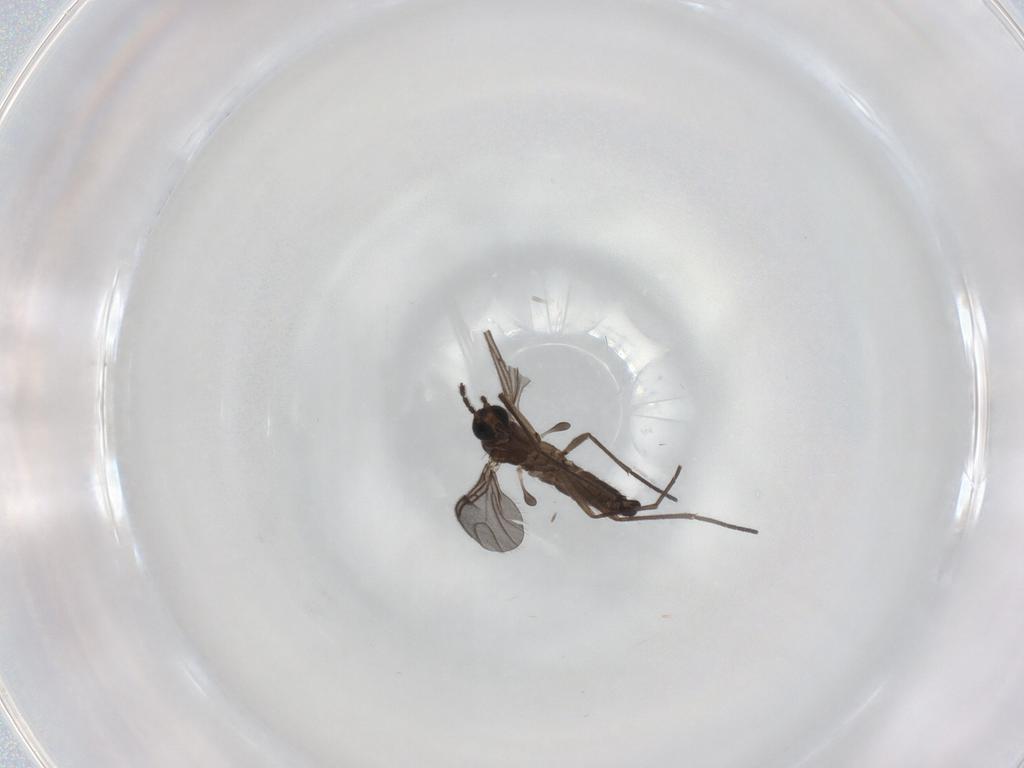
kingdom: Animalia
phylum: Arthropoda
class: Insecta
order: Diptera
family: Sciaridae
